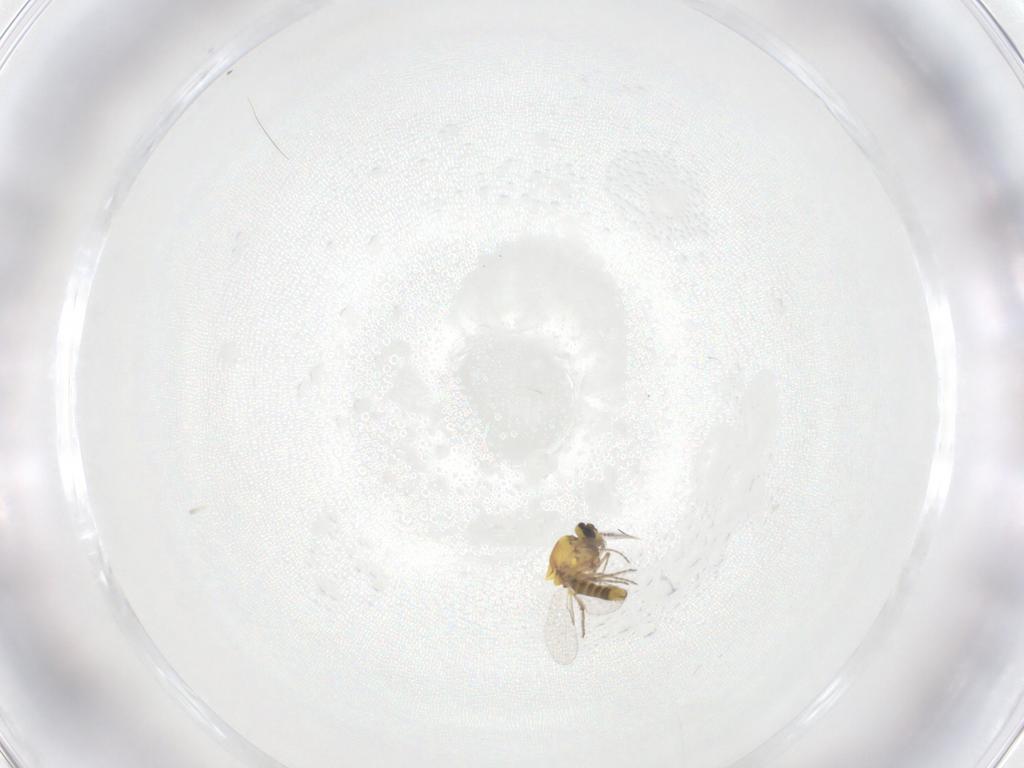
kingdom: Animalia
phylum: Arthropoda
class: Insecta
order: Diptera
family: Ceratopogonidae
